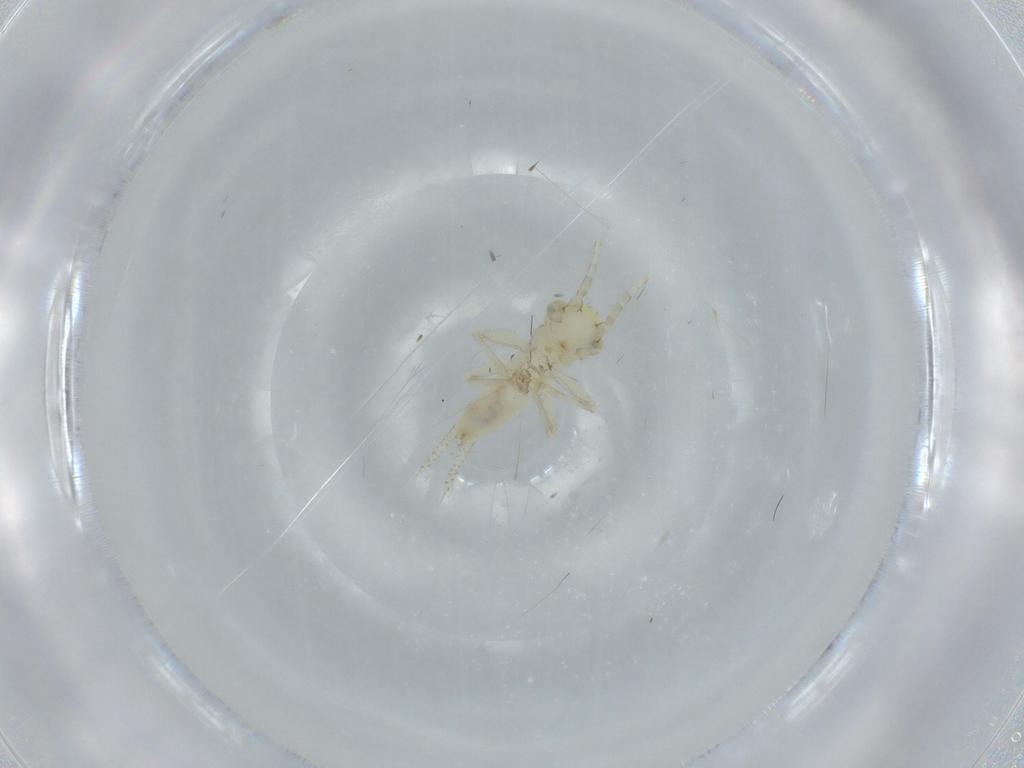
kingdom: Animalia
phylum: Arthropoda
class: Insecta
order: Orthoptera
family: Trigonidiidae
